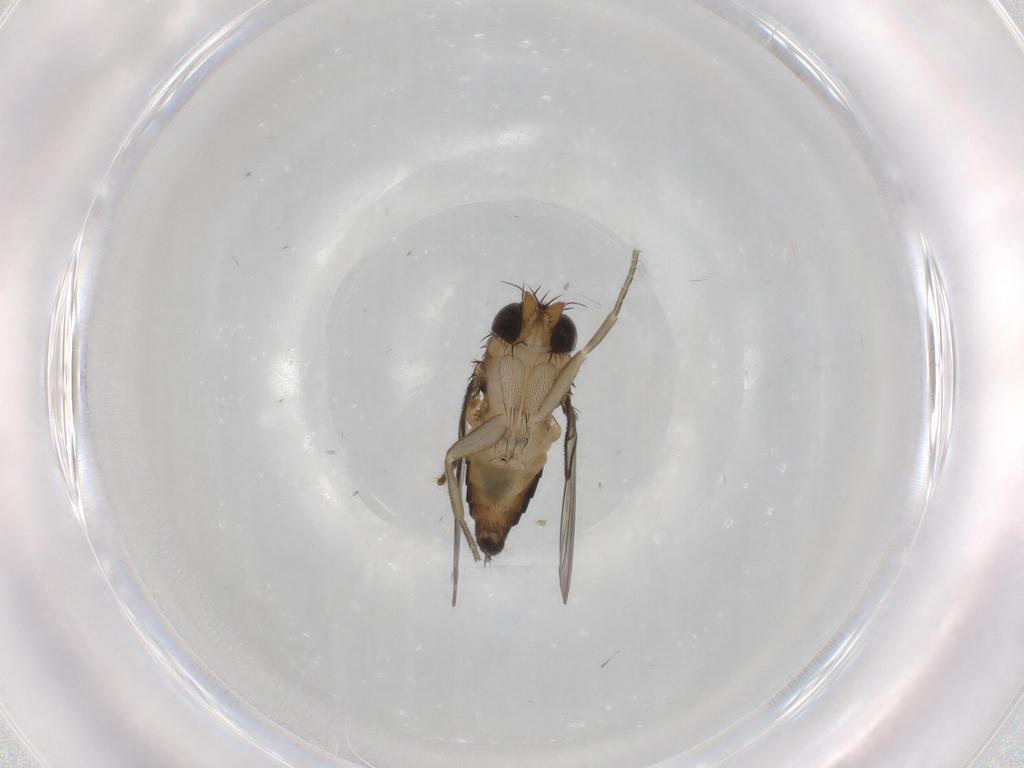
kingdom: Animalia
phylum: Arthropoda
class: Insecta
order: Diptera
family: Phoridae
